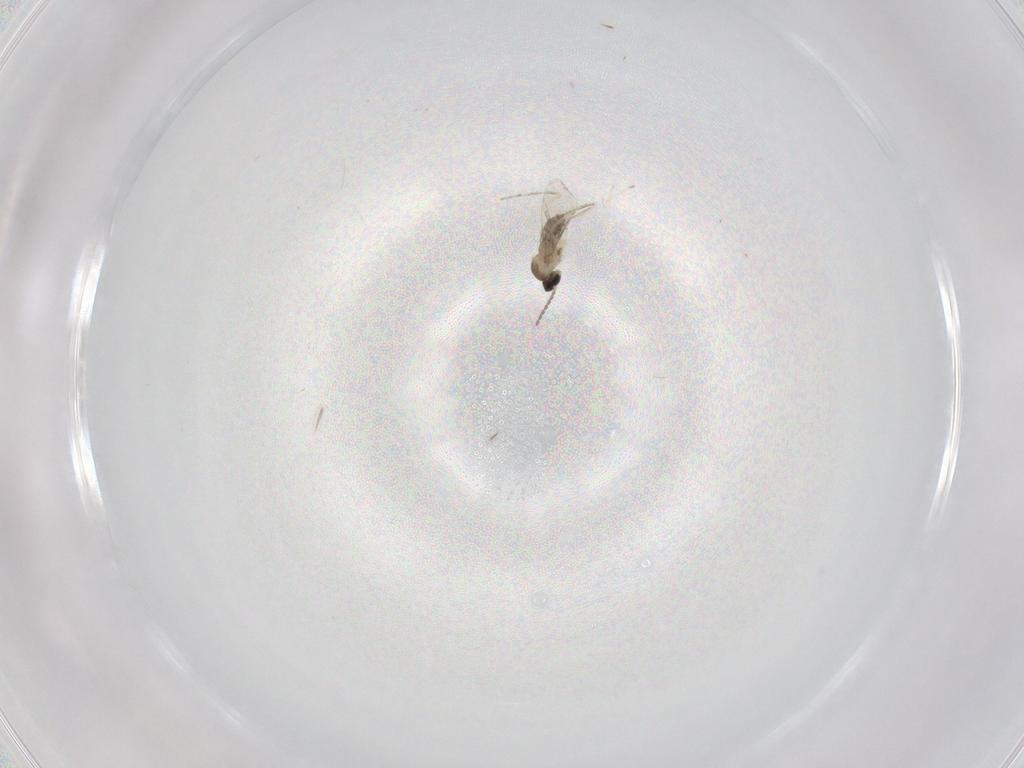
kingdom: Animalia
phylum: Arthropoda
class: Insecta
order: Diptera
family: Cecidomyiidae
